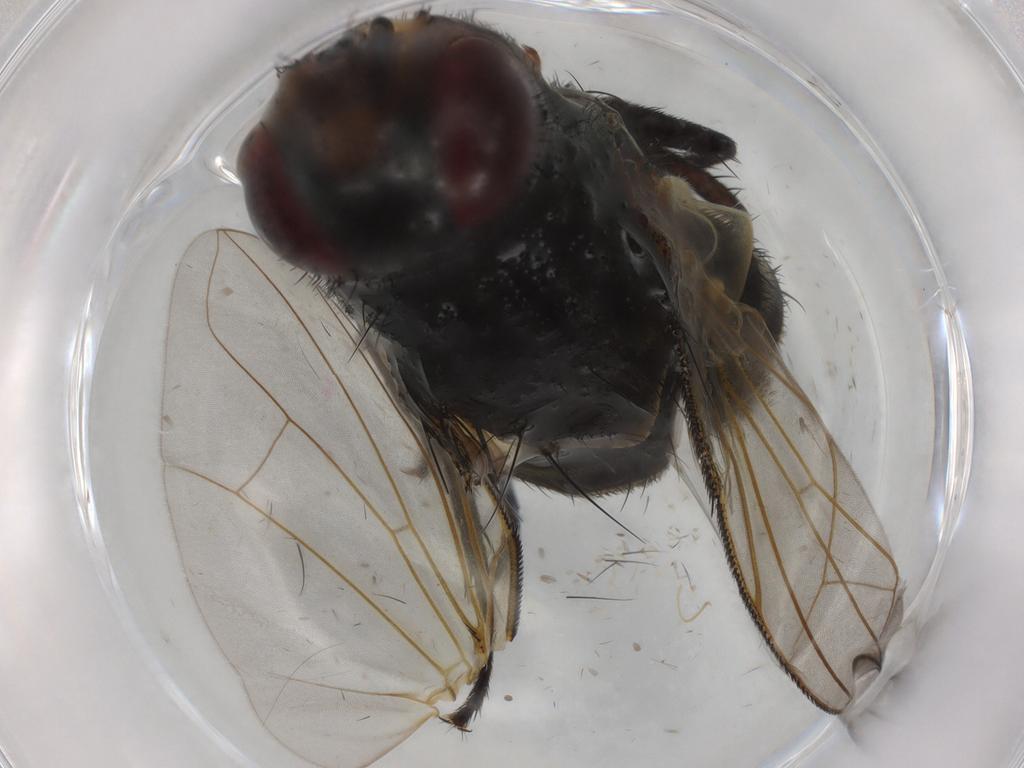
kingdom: Animalia
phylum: Arthropoda
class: Insecta
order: Diptera
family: Tachinidae
